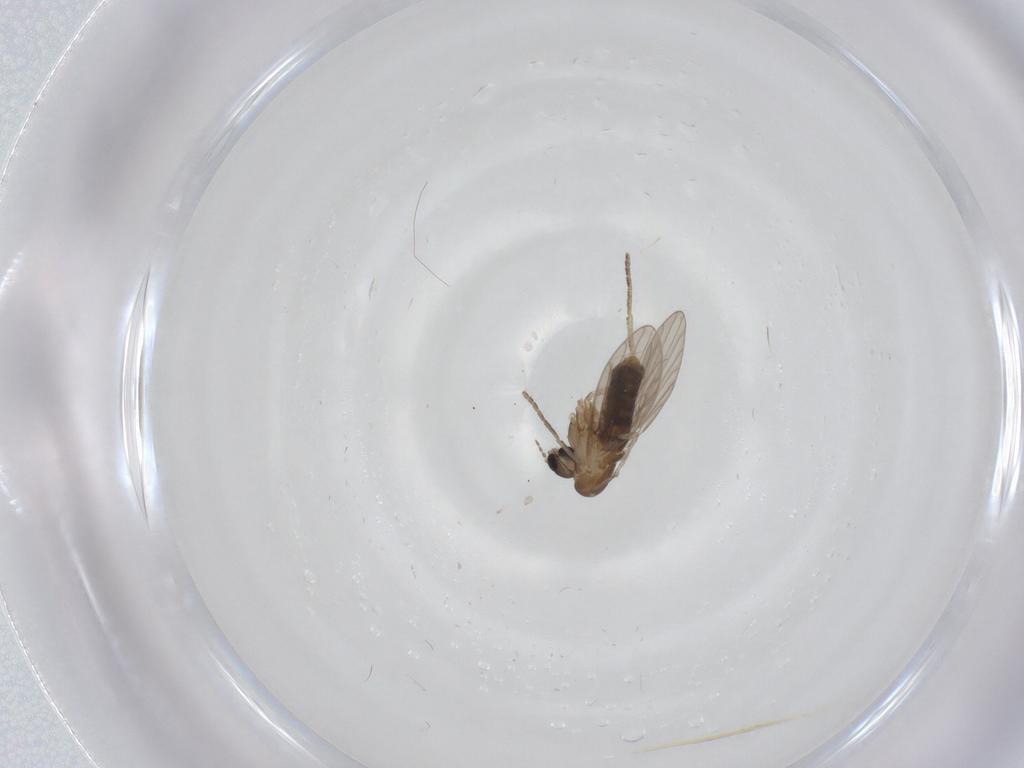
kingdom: Animalia
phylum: Arthropoda
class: Insecta
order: Diptera
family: Cecidomyiidae
